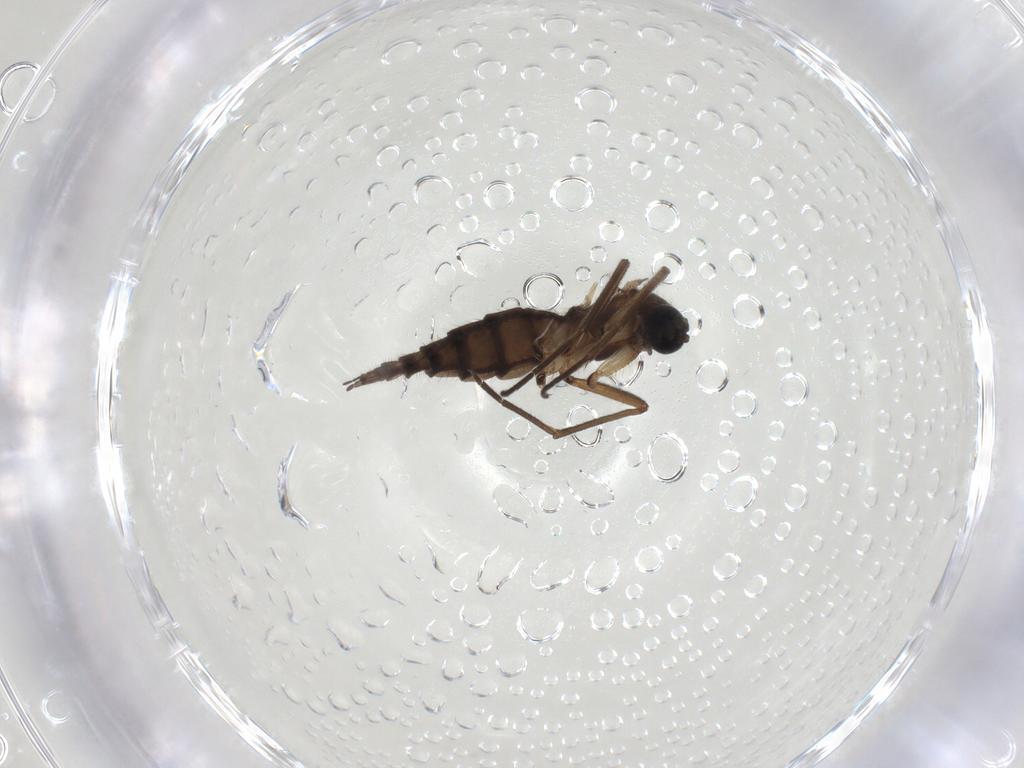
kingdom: Animalia
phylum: Arthropoda
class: Insecta
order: Diptera
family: Sciaridae
